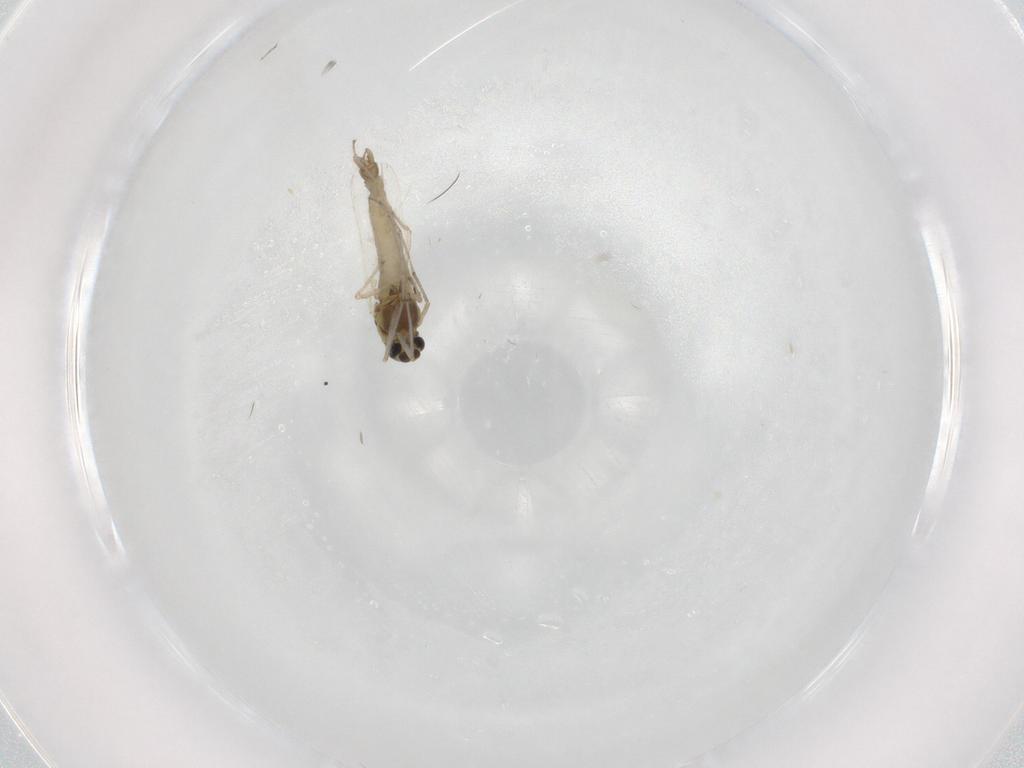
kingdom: Animalia
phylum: Arthropoda
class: Insecta
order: Diptera
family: Chironomidae
